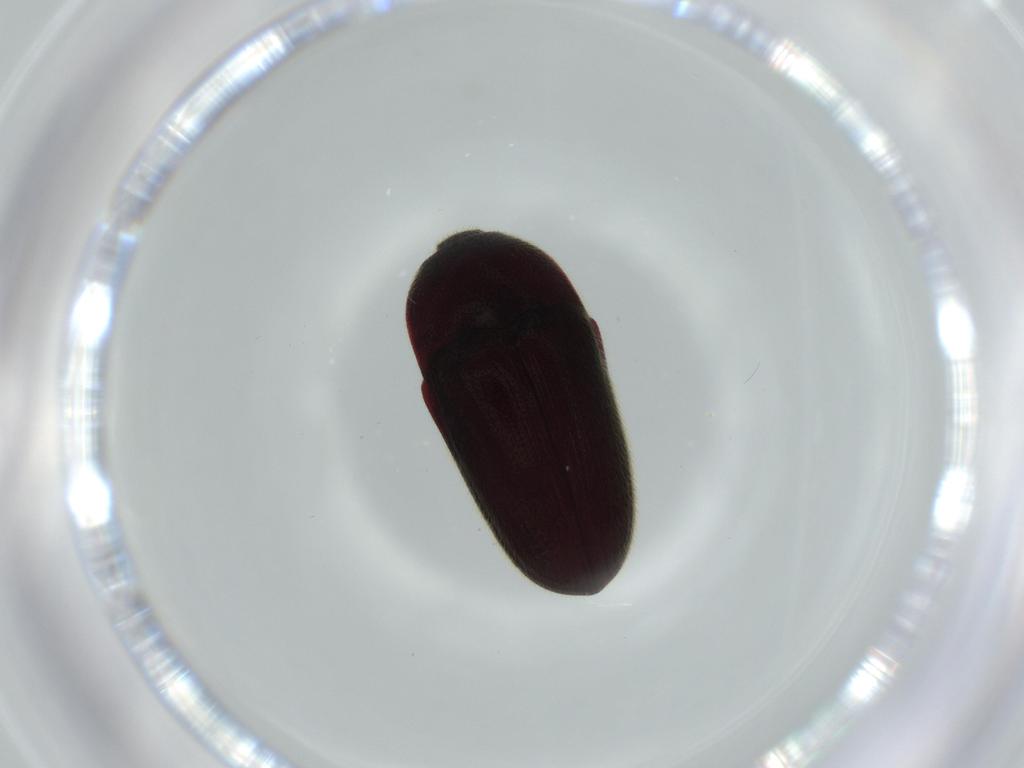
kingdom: Animalia
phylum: Arthropoda
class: Insecta
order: Coleoptera
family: Throscidae
